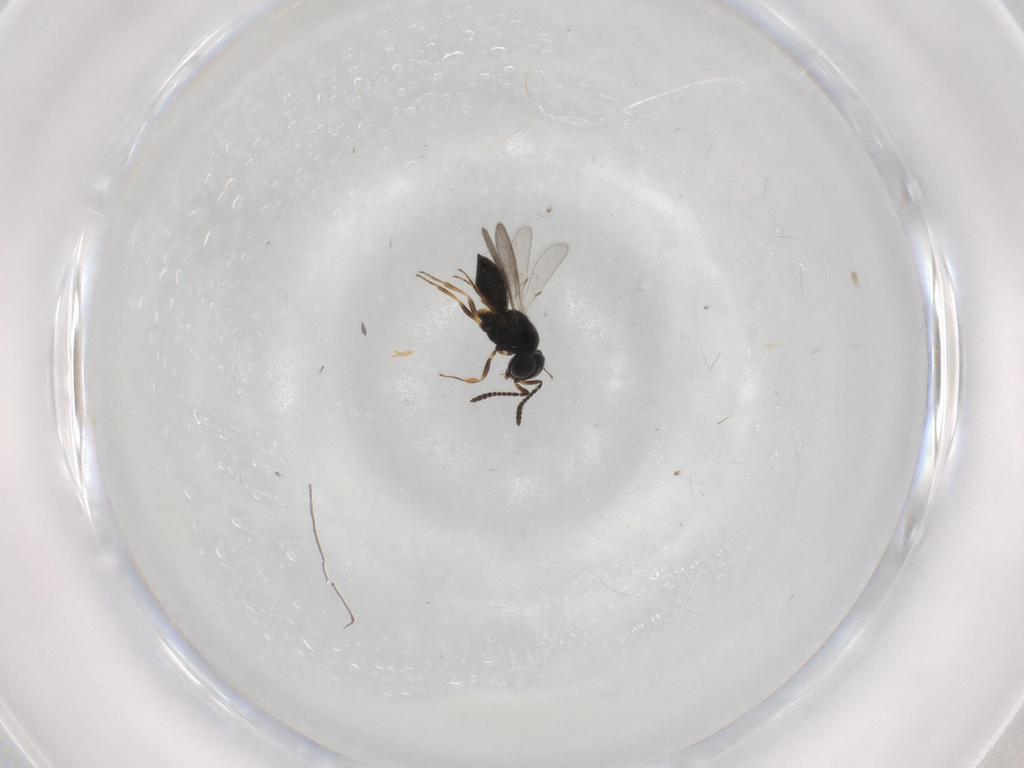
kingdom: Animalia
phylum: Arthropoda
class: Insecta
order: Hymenoptera
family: Scelionidae
